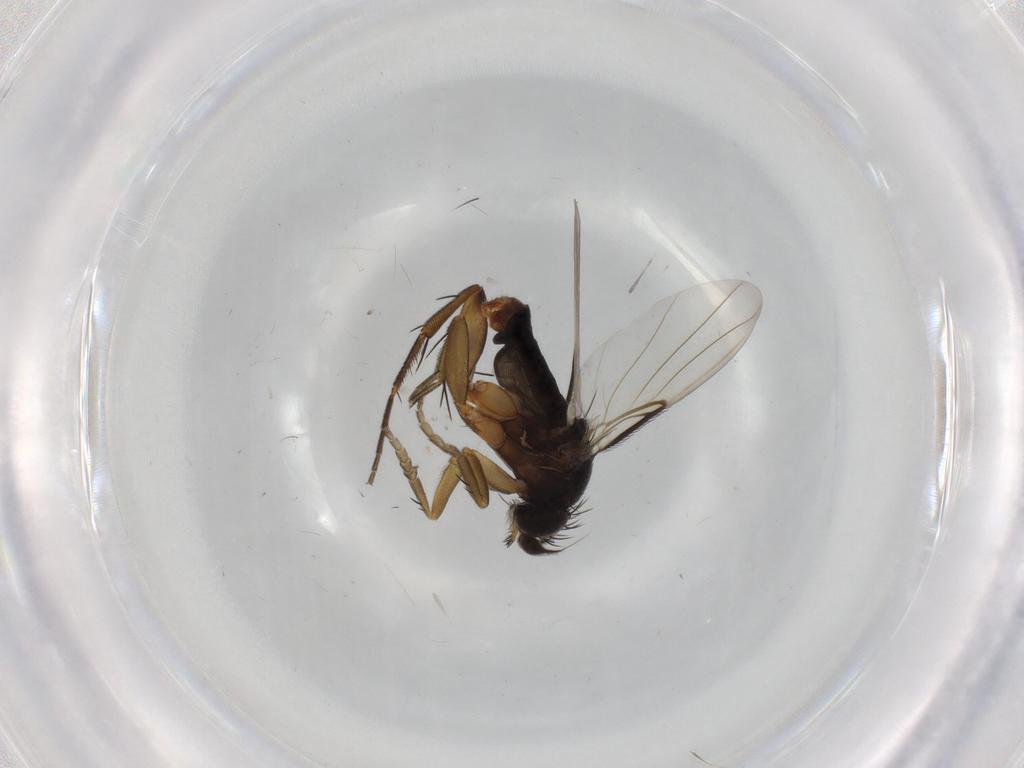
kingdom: Animalia
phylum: Arthropoda
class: Insecta
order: Diptera
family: Phoridae
